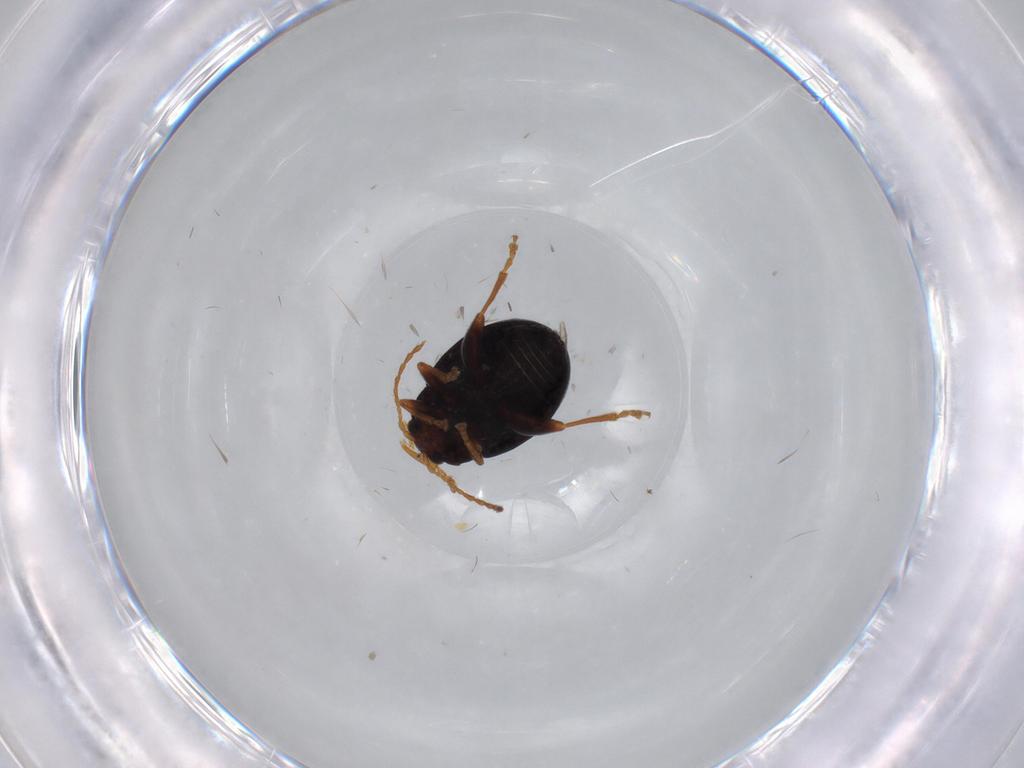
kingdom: Animalia
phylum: Arthropoda
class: Insecta
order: Coleoptera
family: Chrysomelidae
